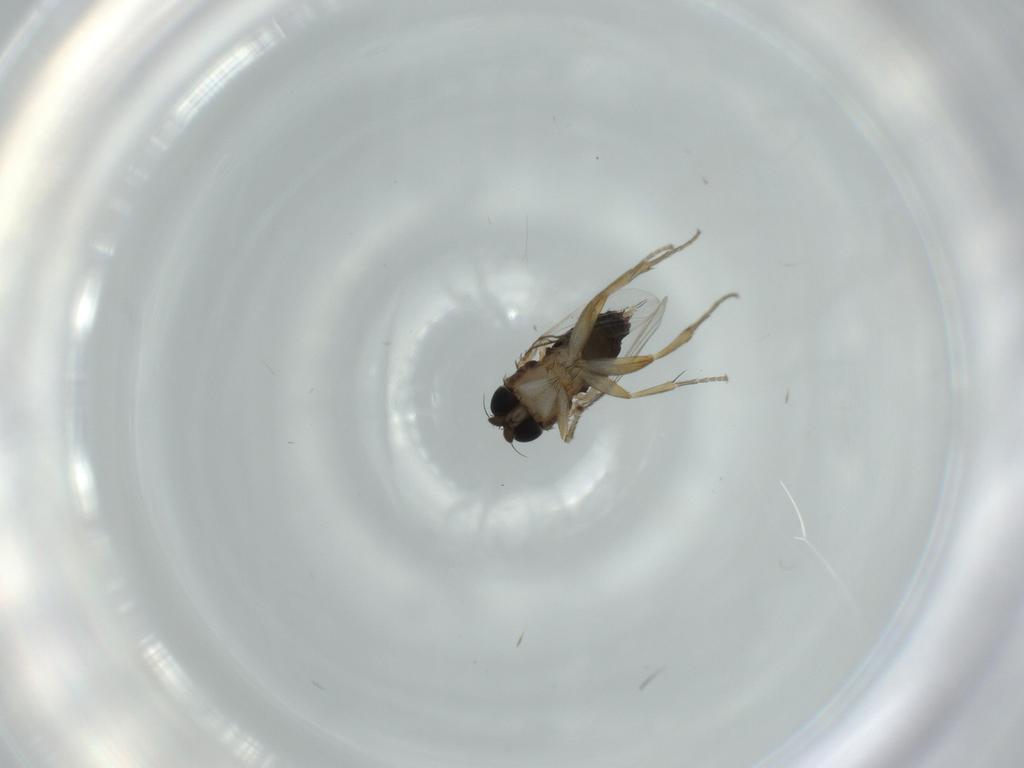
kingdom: Animalia
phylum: Arthropoda
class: Insecta
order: Diptera
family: Phoridae
